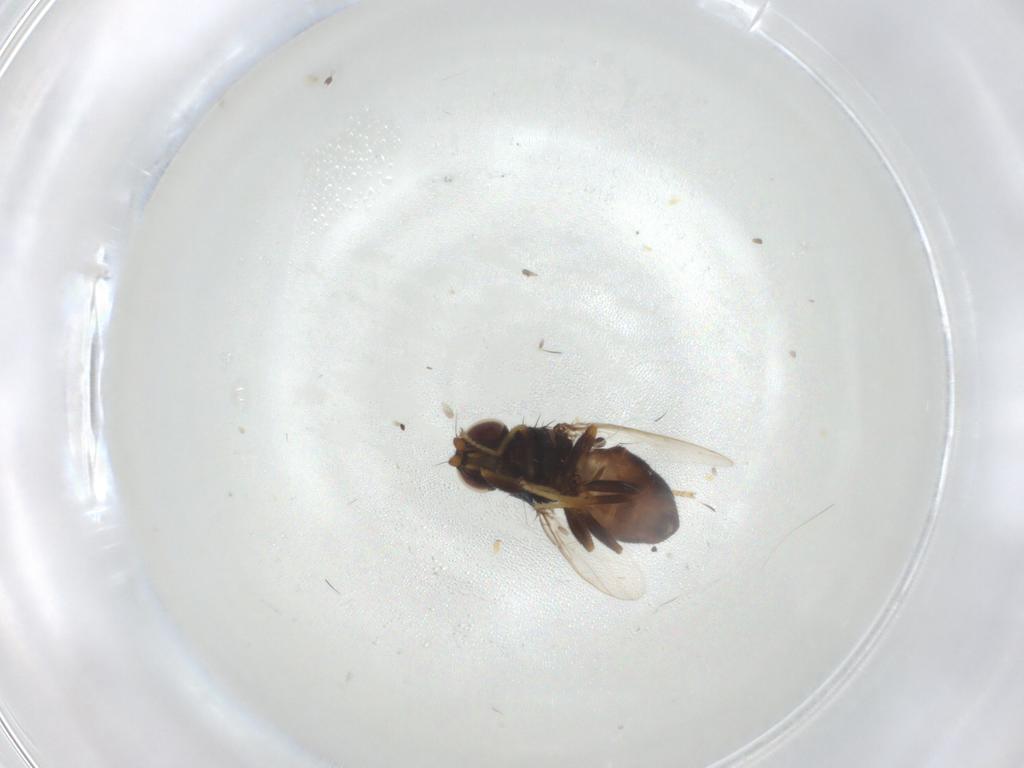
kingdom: Animalia
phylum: Arthropoda
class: Insecta
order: Diptera
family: Chloropidae
